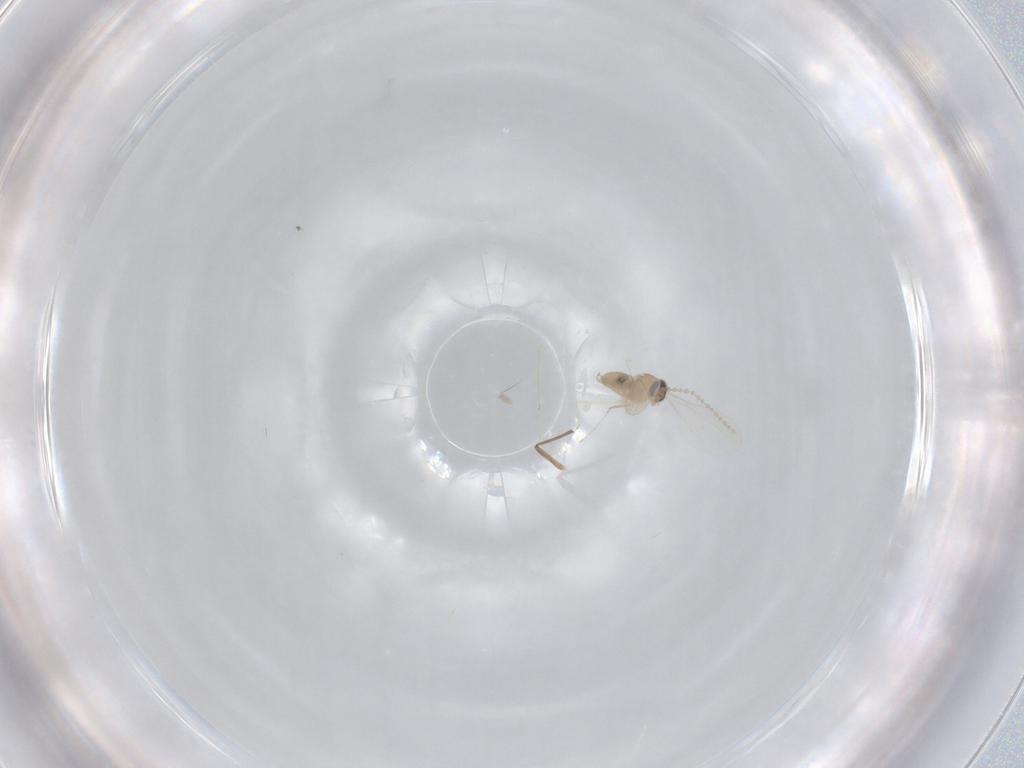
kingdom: Animalia
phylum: Arthropoda
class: Insecta
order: Diptera
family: Chironomidae
